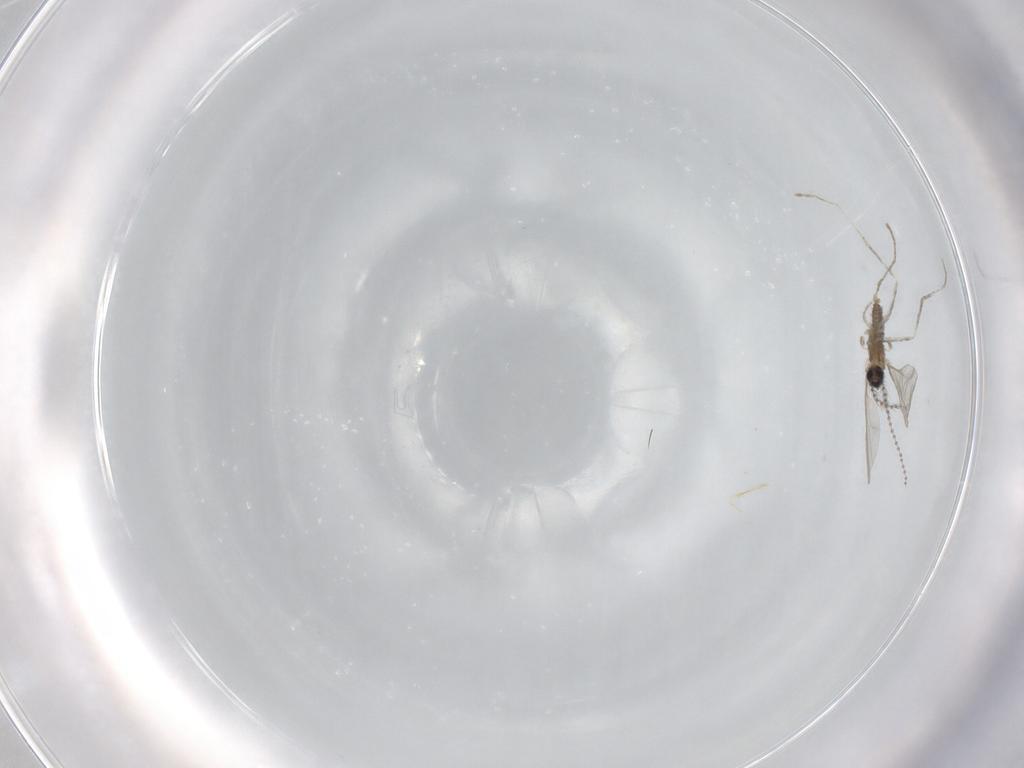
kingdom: Animalia
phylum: Arthropoda
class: Insecta
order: Diptera
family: Cecidomyiidae
